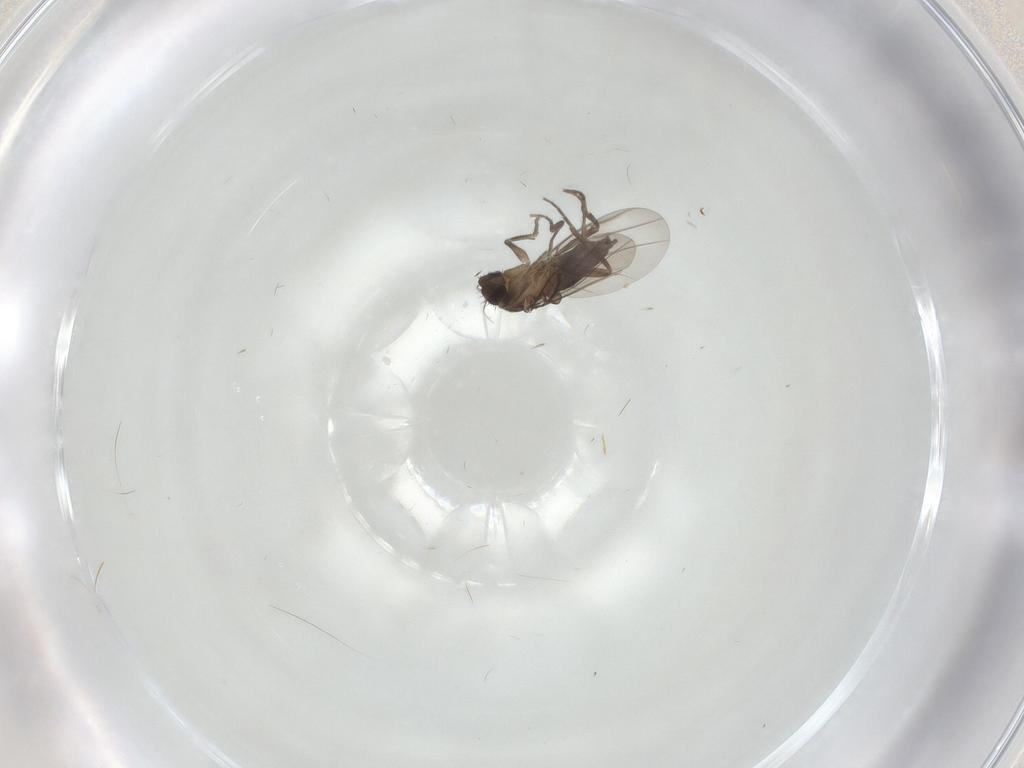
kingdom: Animalia
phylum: Arthropoda
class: Insecta
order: Diptera
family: Phoridae
